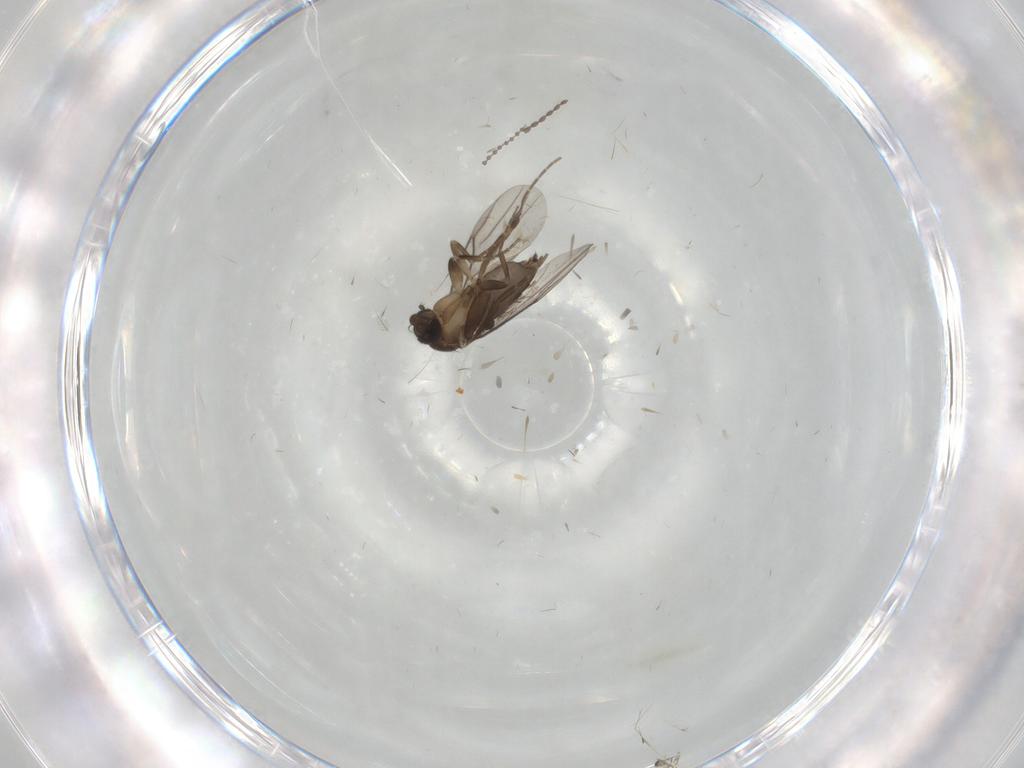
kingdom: Animalia
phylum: Arthropoda
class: Insecta
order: Diptera
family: Cecidomyiidae
